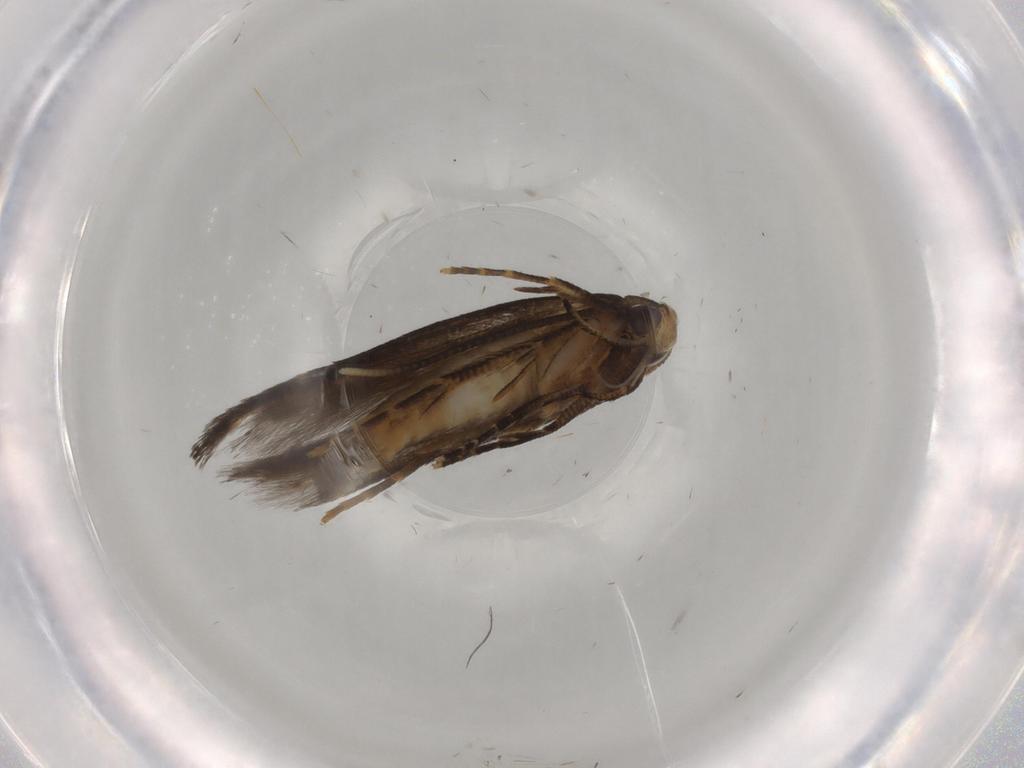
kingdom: Animalia
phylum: Arthropoda
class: Insecta
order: Lepidoptera
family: Cosmopterigidae
